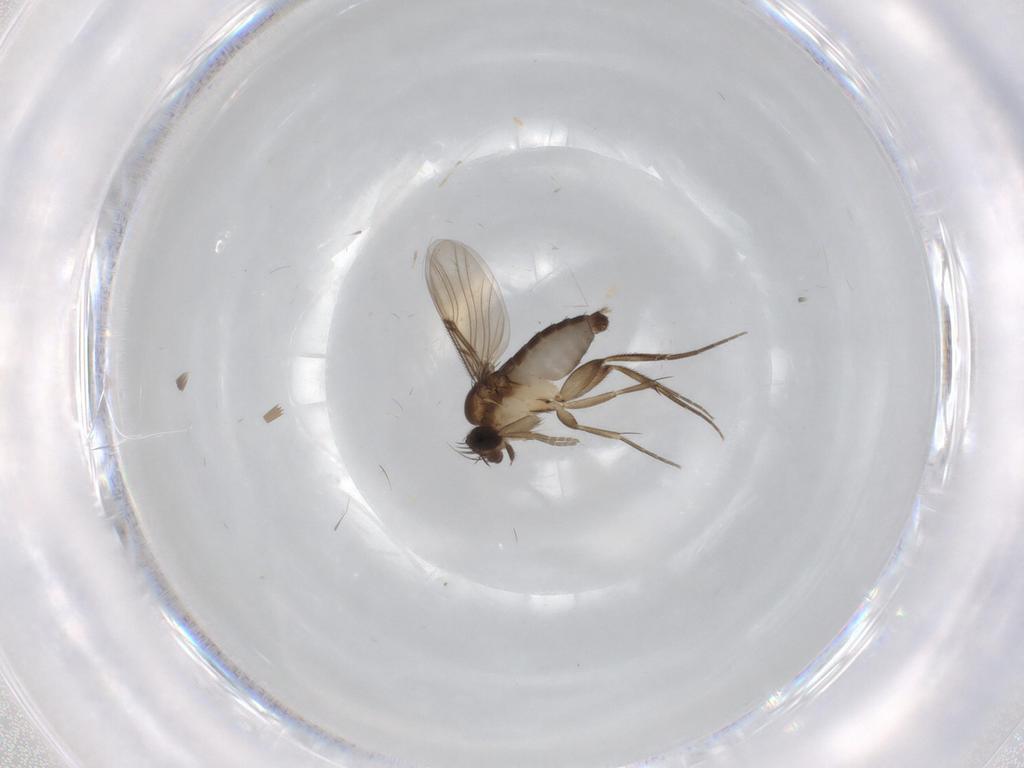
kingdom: Animalia
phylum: Arthropoda
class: Insecta
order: Diptera
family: Phoridae
